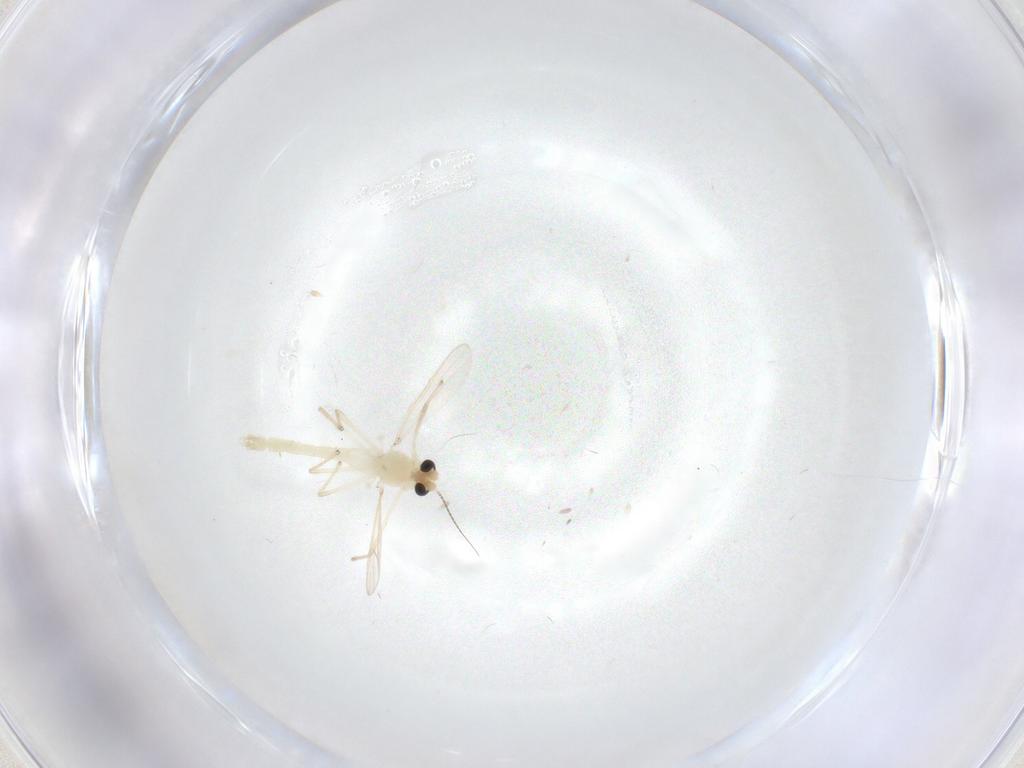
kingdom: Animalia
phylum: Arthropoda
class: Insecta
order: Diptera
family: Chironomidae
